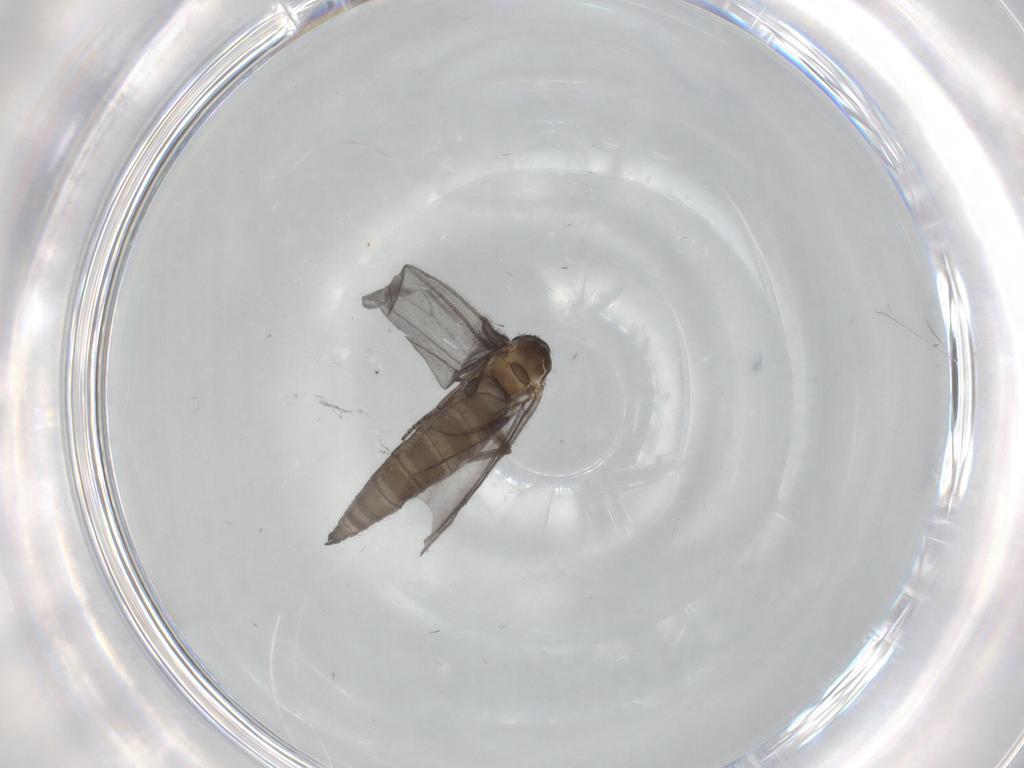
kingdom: Animalia
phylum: Arthropoda
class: Insecta
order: Diptera
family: Sciaridae
